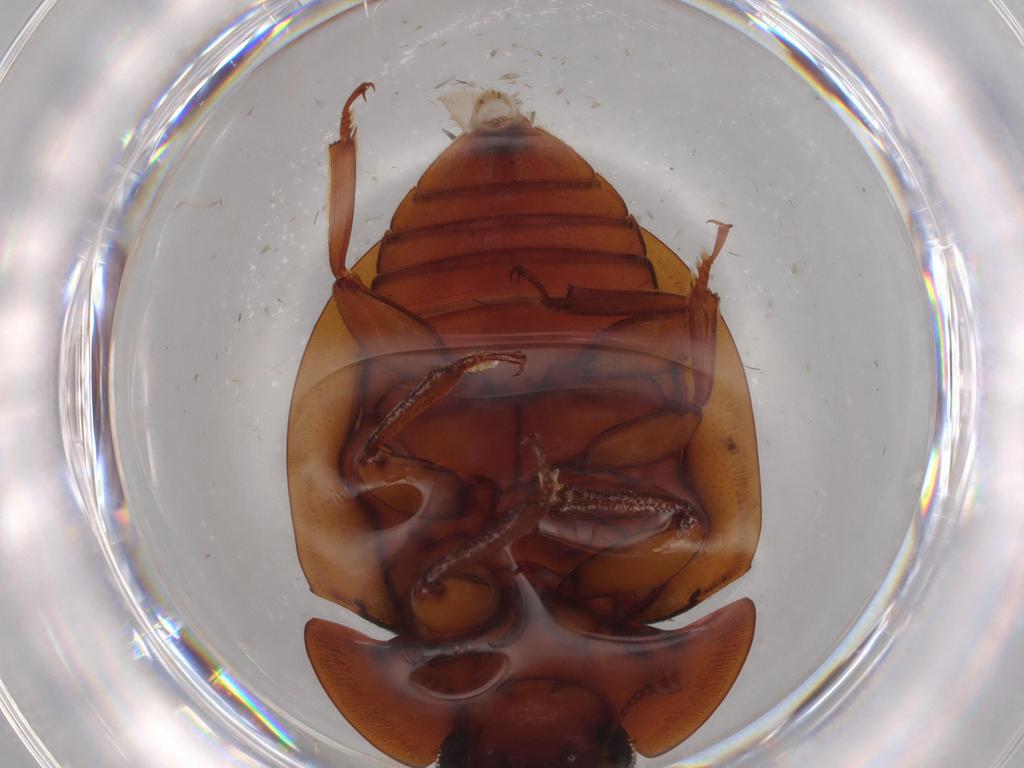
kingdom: Animalia
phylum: Arthropoda
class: Insecta
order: Coleoptera
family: Nitidulidae
